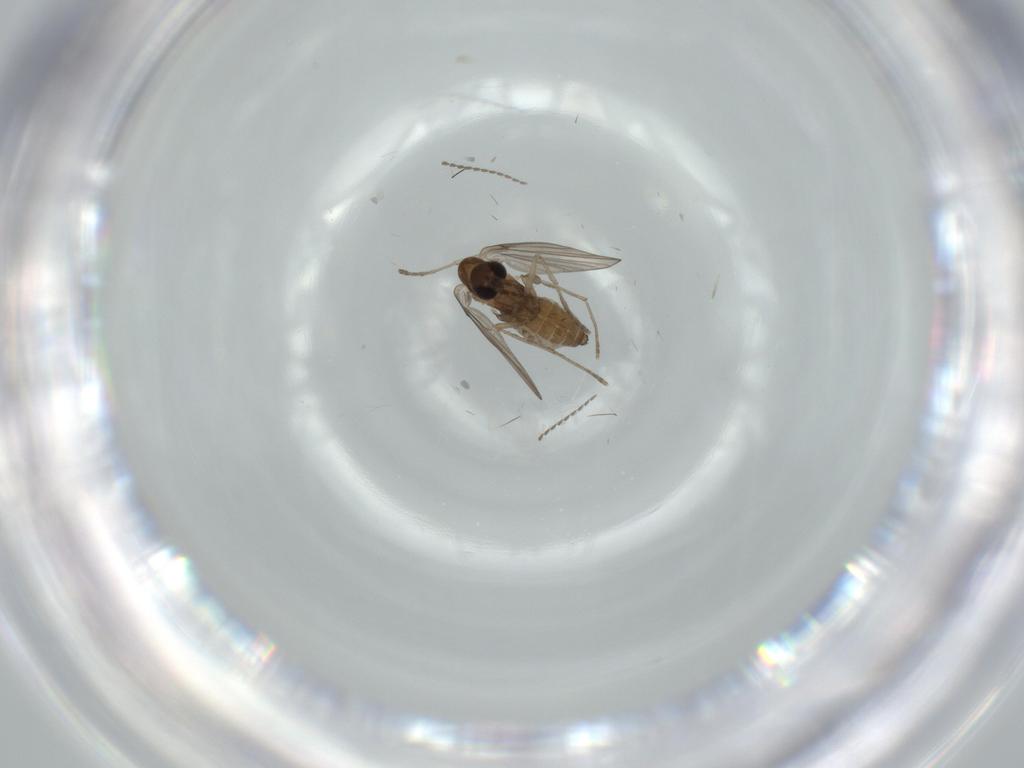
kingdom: Animalia
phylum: Arthropoda
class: Insecta
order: Diptera
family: Psychodidae
